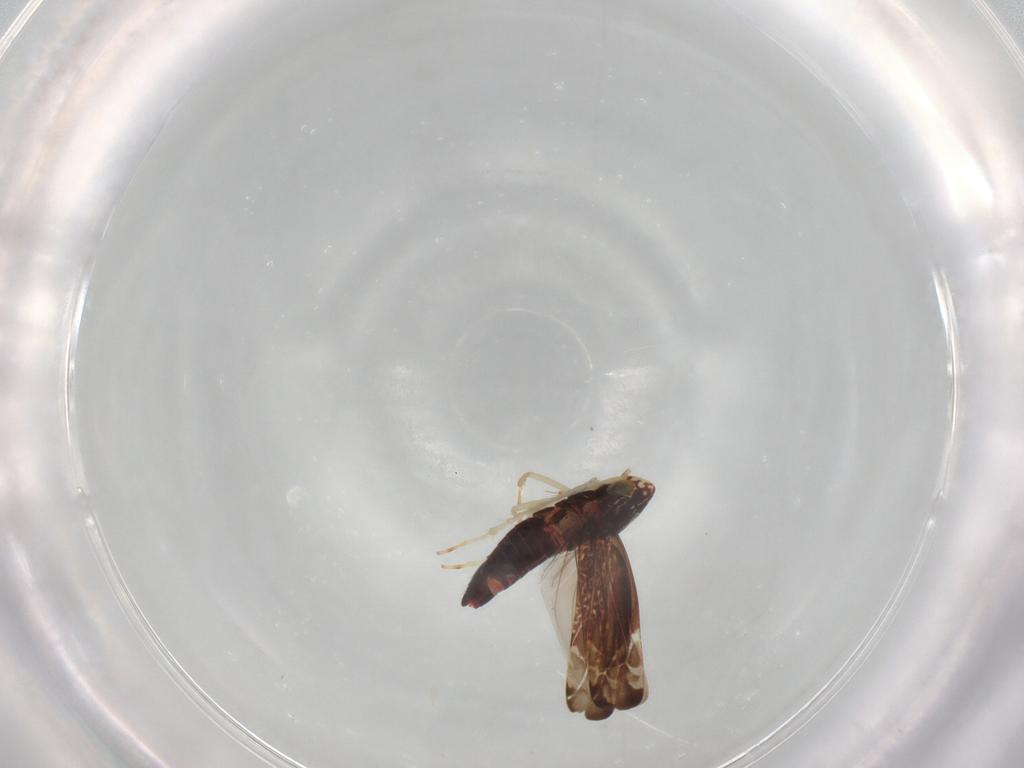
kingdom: Animalia
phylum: Arthropoda
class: Insecta
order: Hemiptera
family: Cicadellidae
